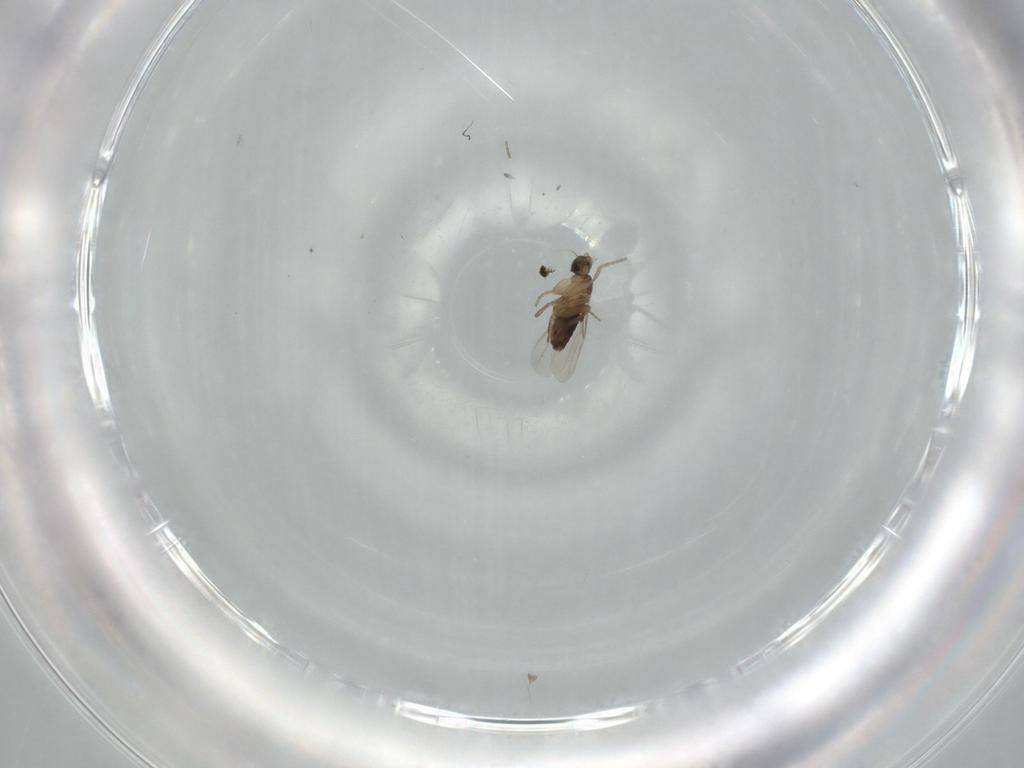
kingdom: Animalia
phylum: Arthropoda
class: Insecta
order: Diptera
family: Phoridae
